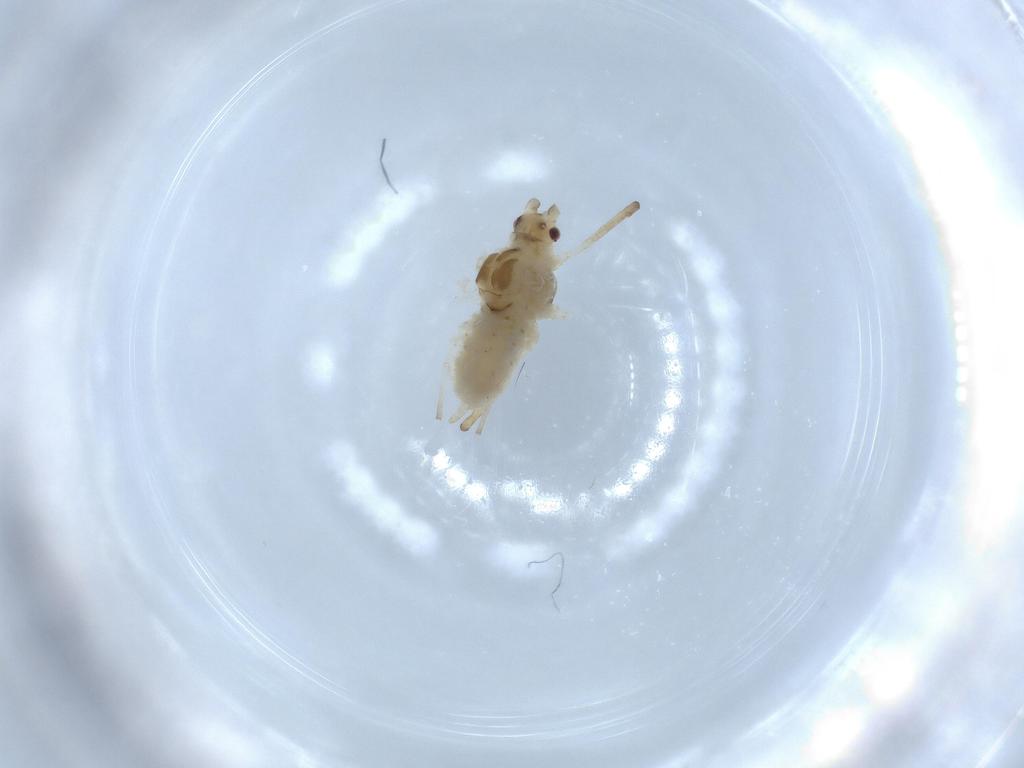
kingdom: Animalia
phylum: Arthropoda
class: Insecta
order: Hemiptera
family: Aphididae
